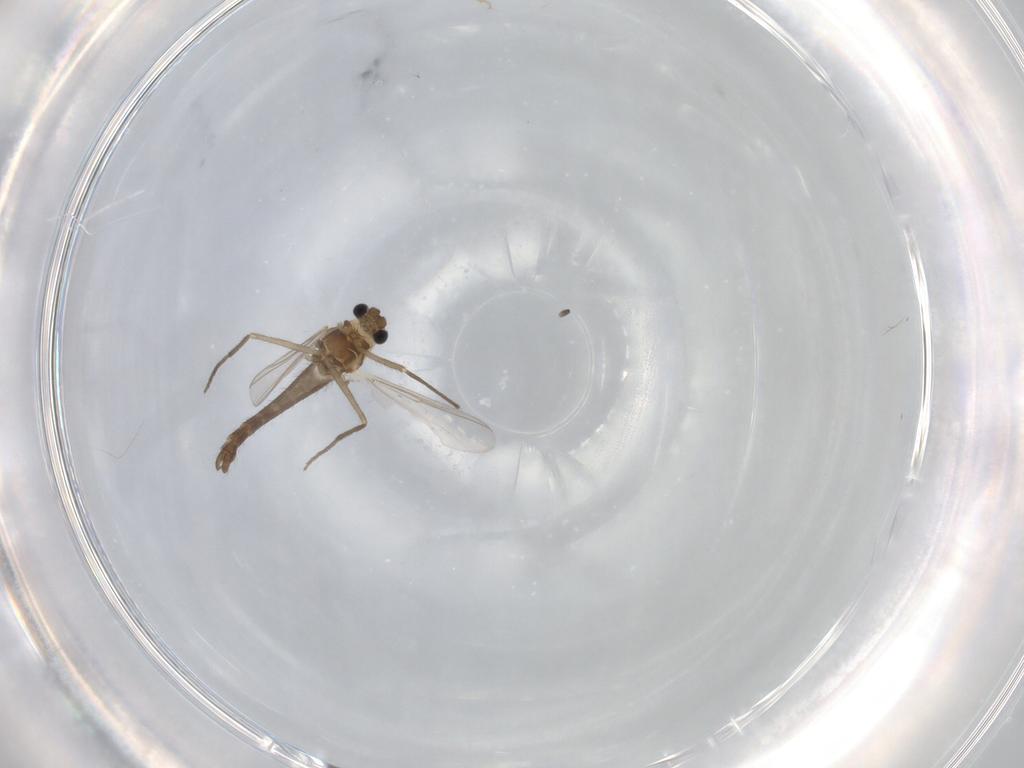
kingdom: Animalia
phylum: Arthropoda
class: Insecta
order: Diptera
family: Chironomidae
